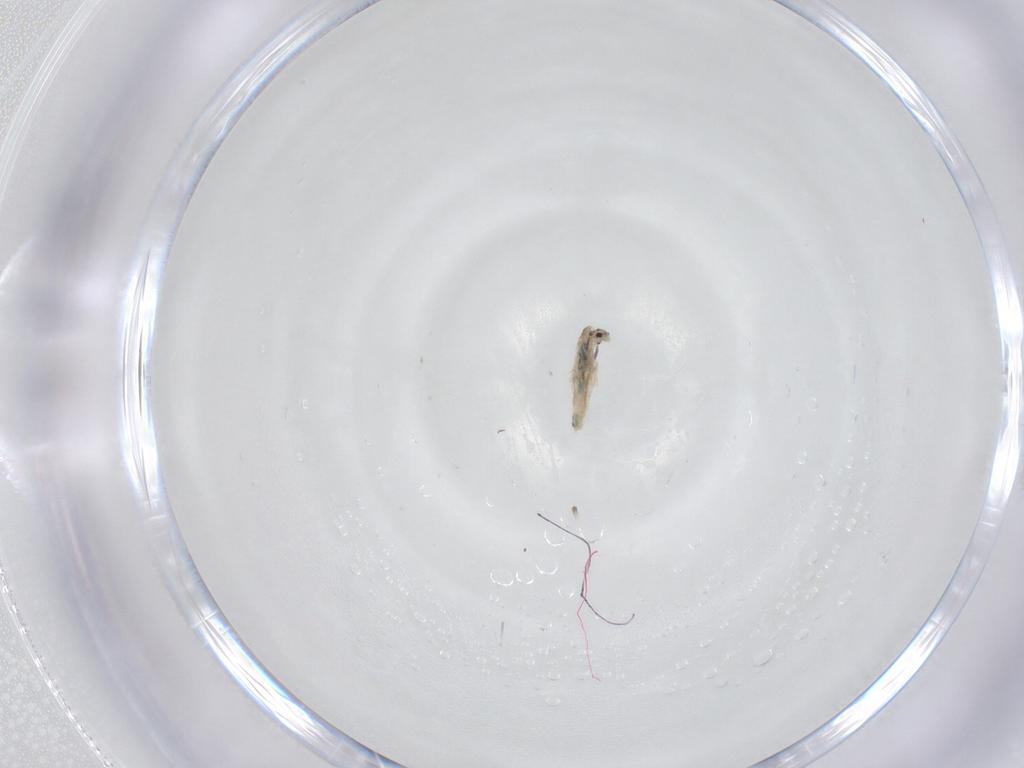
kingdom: Animalia
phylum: Arthropoda
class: Collembola
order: Entomobryomorpha
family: Entomobryidae
